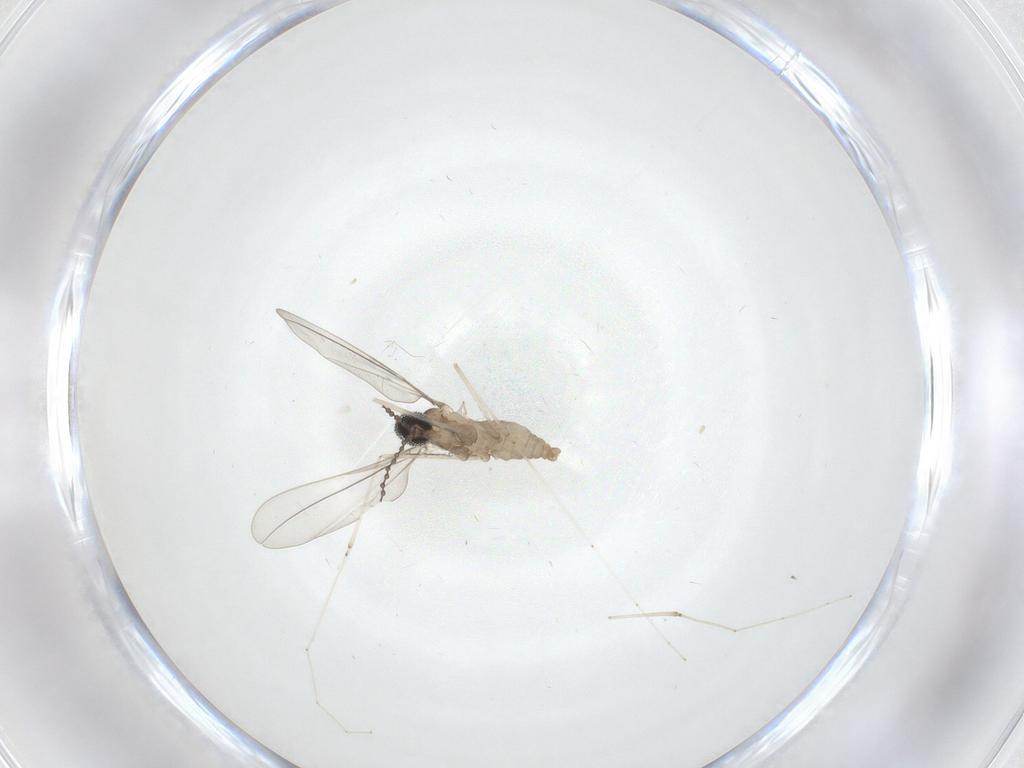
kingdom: Animalia
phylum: Arthropoda
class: Insecta
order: Diptera
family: Cecidomyiidae
